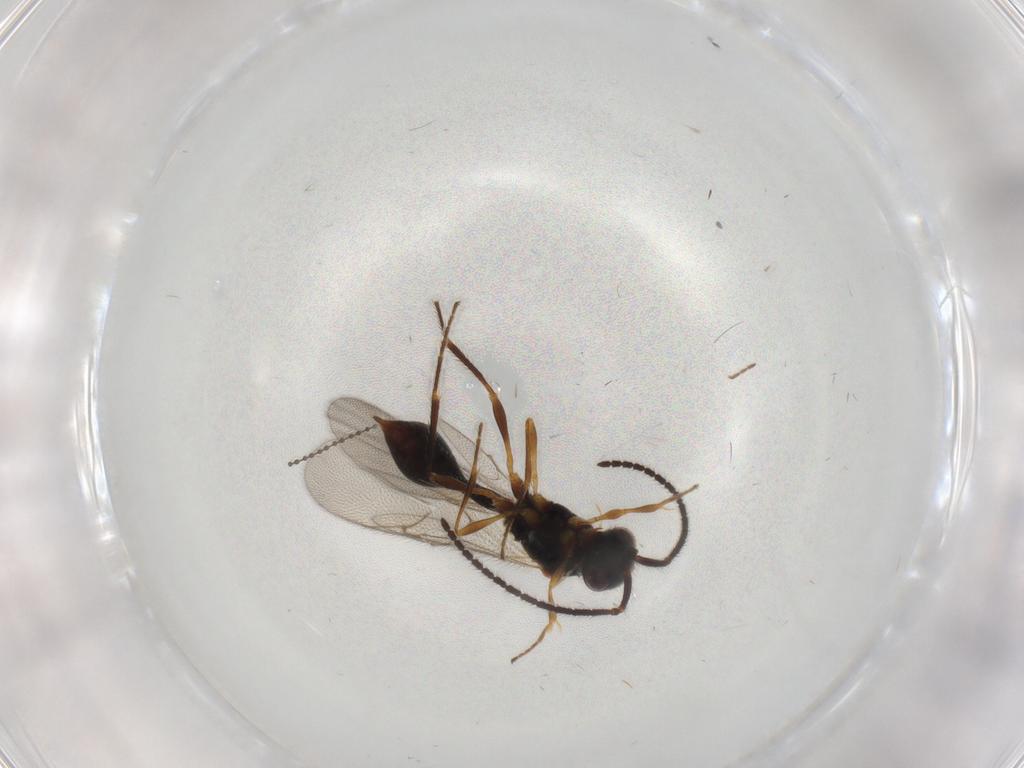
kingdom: Animalia
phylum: Arthropoda
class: Insecta
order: Hymenoptera
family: Diapriidae
